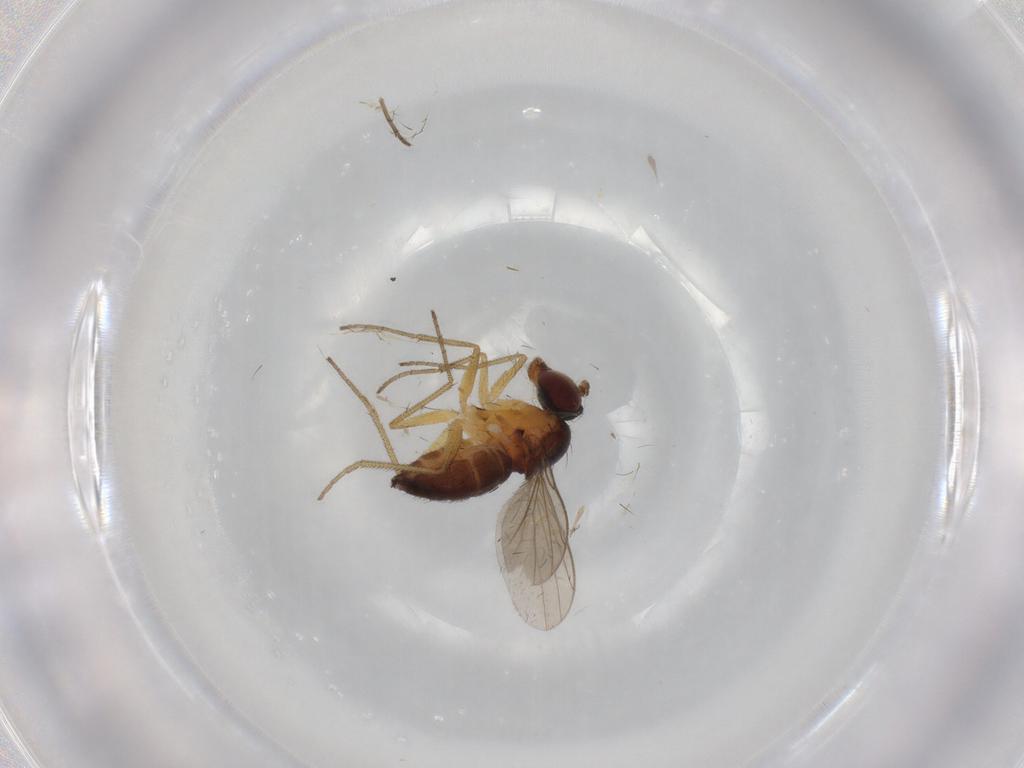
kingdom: Animalia
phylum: Arthropoda
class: Insecta
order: Diptera
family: Dolichopodidae
